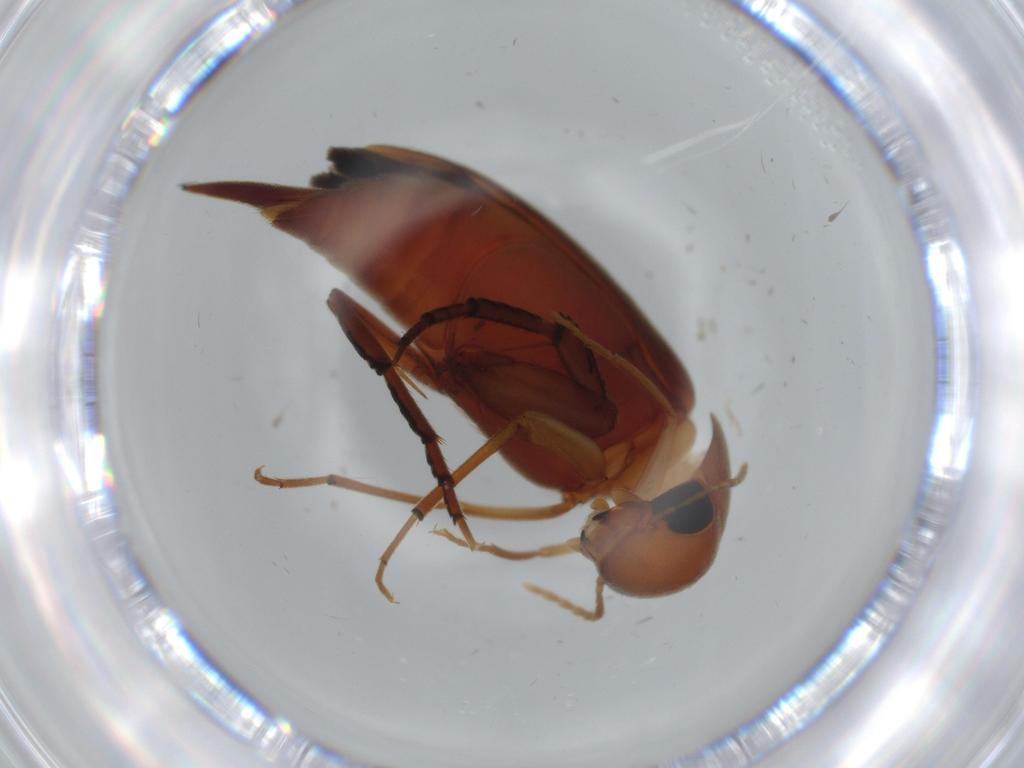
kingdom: Animalia
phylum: Arthropoda
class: Insecta
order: Coleoptera
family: Mordellidae
